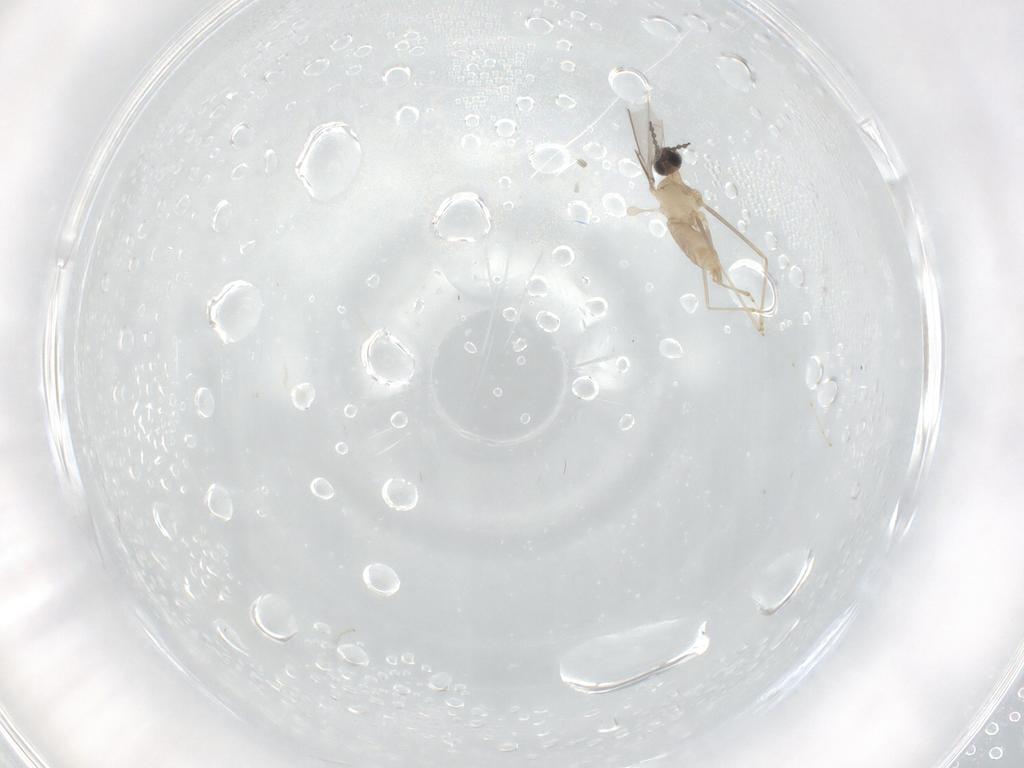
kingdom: Animalia
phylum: Arthropoda
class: Insecta
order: Diptera
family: Cecidomyiidae
